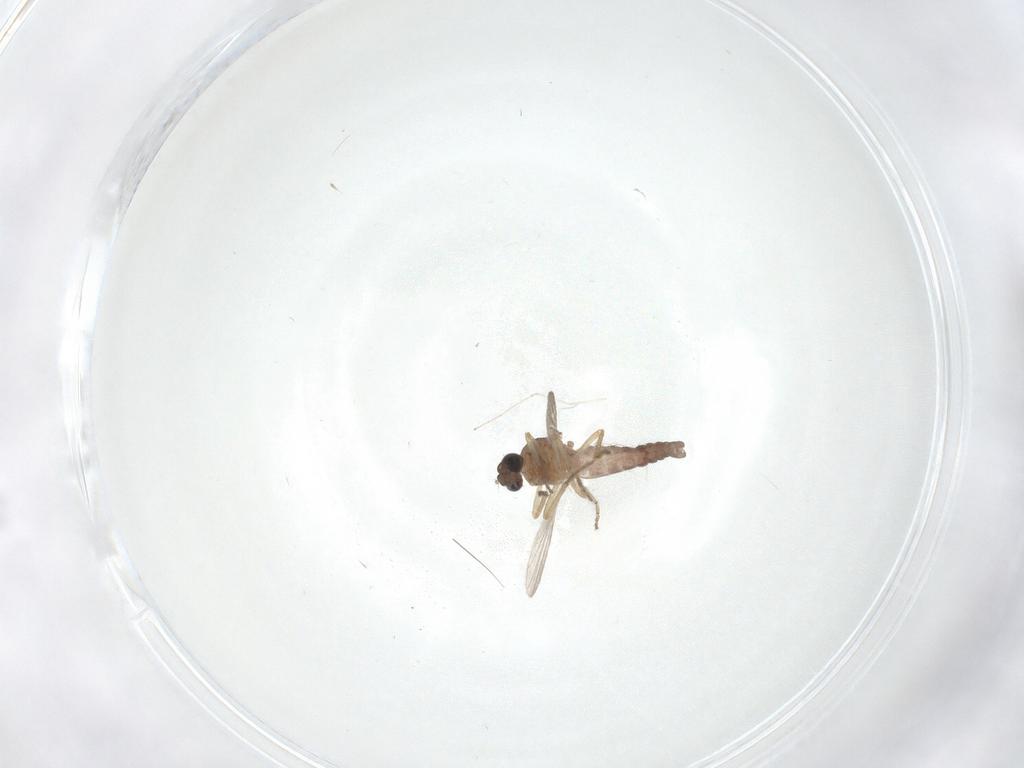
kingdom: Animalia
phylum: Arthropoda
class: Insecta
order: Diptera
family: Ceratopogonidae
